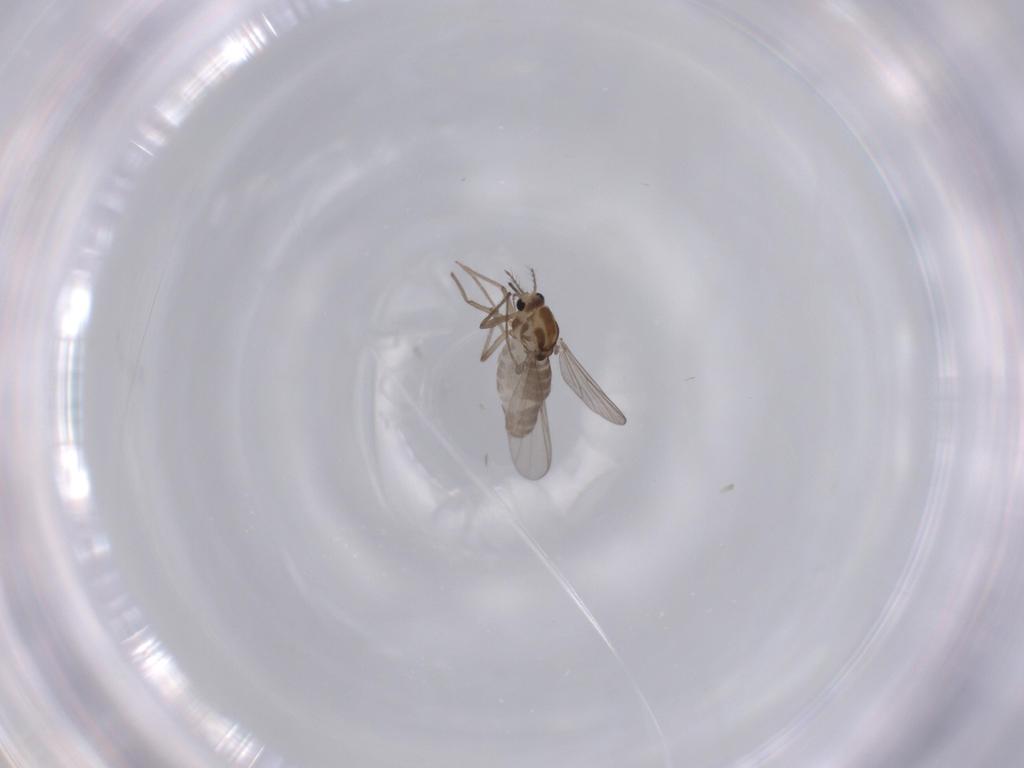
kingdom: Animalia
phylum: Arthropoda
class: Insecta
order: Diptera
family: Chironomidae
